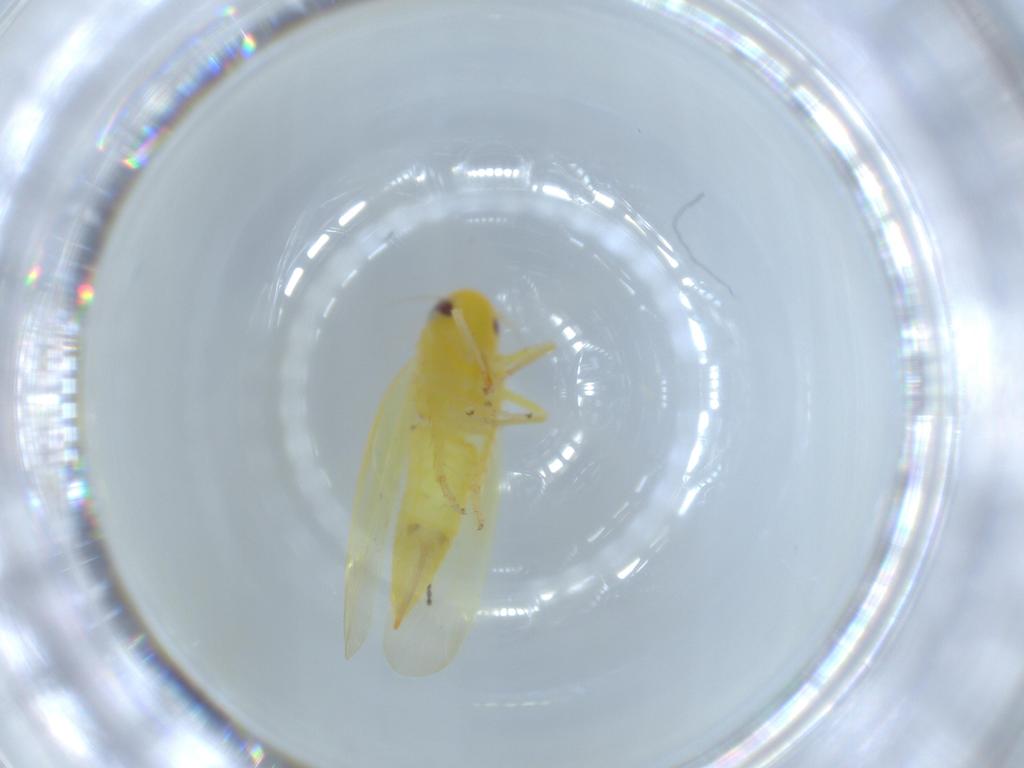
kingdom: Animalia
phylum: Arthropoda
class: Insecta
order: Hemiptera
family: Cicadellidae
